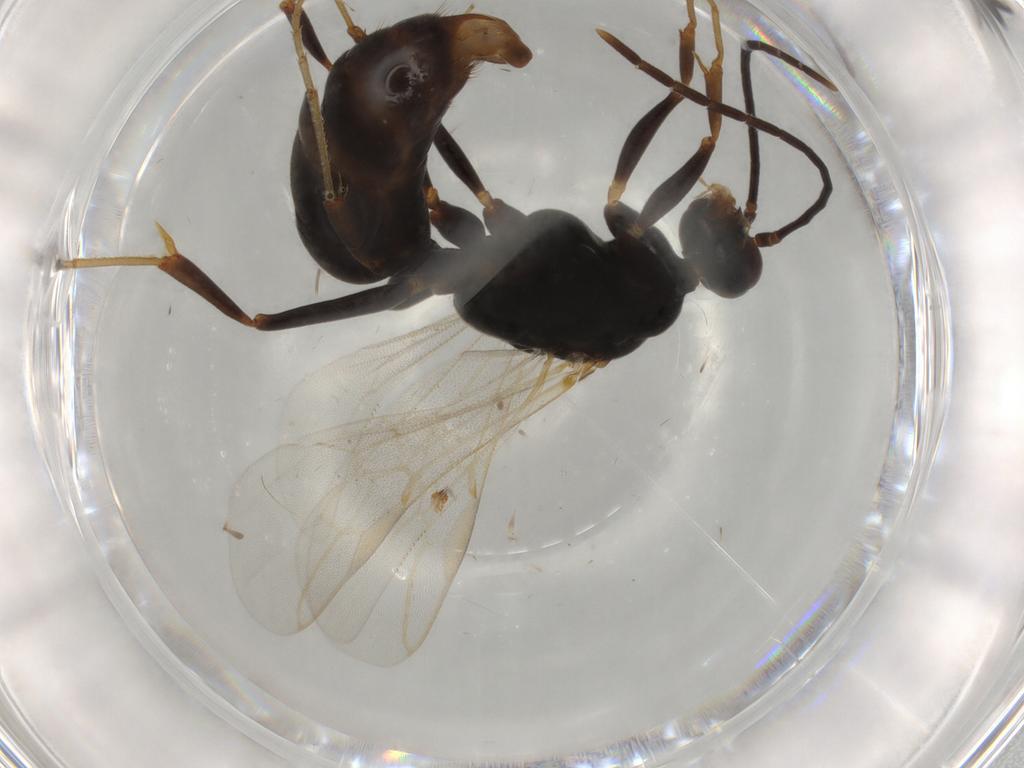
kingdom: Animalia
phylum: Arthropoda
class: Insecta
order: Hymenoptera
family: Formicidae
